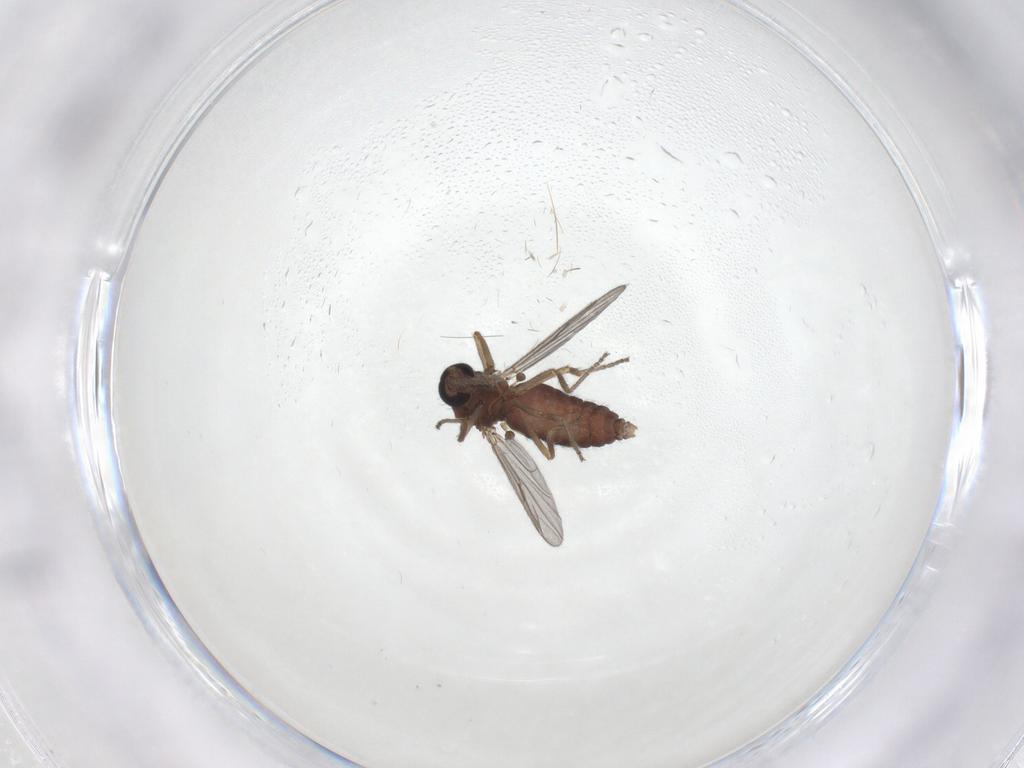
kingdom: Animalia
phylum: Arthropoda
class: Insecta
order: Diptera
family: Ceratopogonidae
